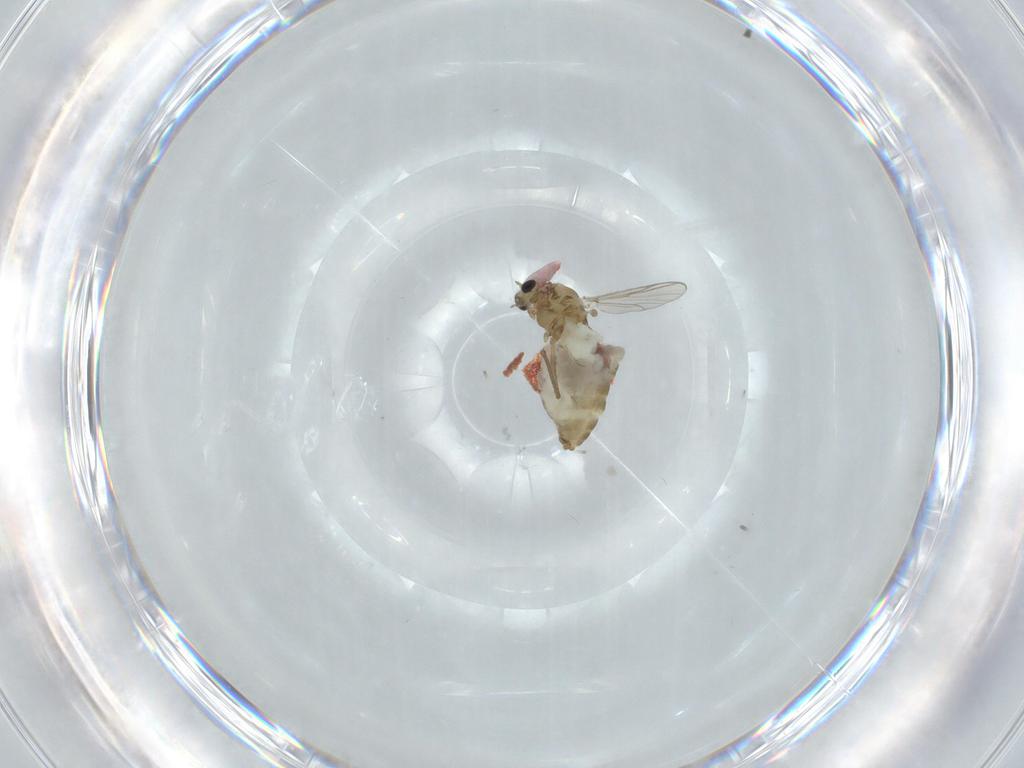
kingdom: Animalia
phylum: Arthropoda
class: Insecta
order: Diptera
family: Chironomidae
